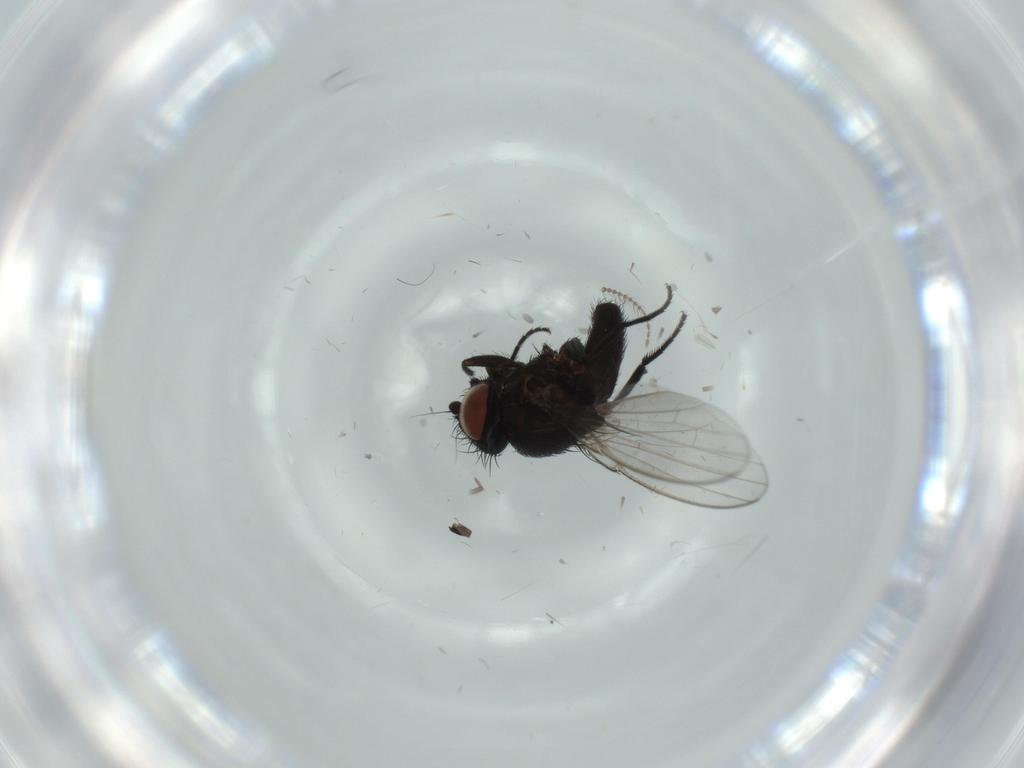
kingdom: Animalia
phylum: Arthropoda
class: Insecta
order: Diptera
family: Milichiidae
